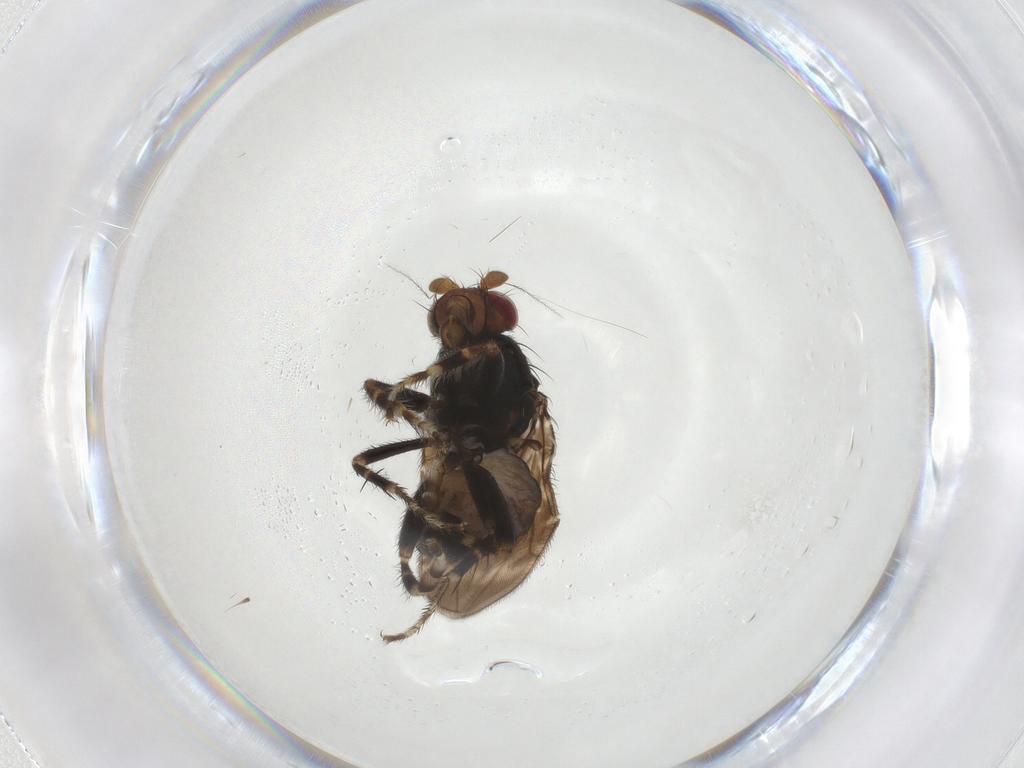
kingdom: Animalia
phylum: Arthropoda
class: Insecta
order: Diptera
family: Sphaeroceridae
